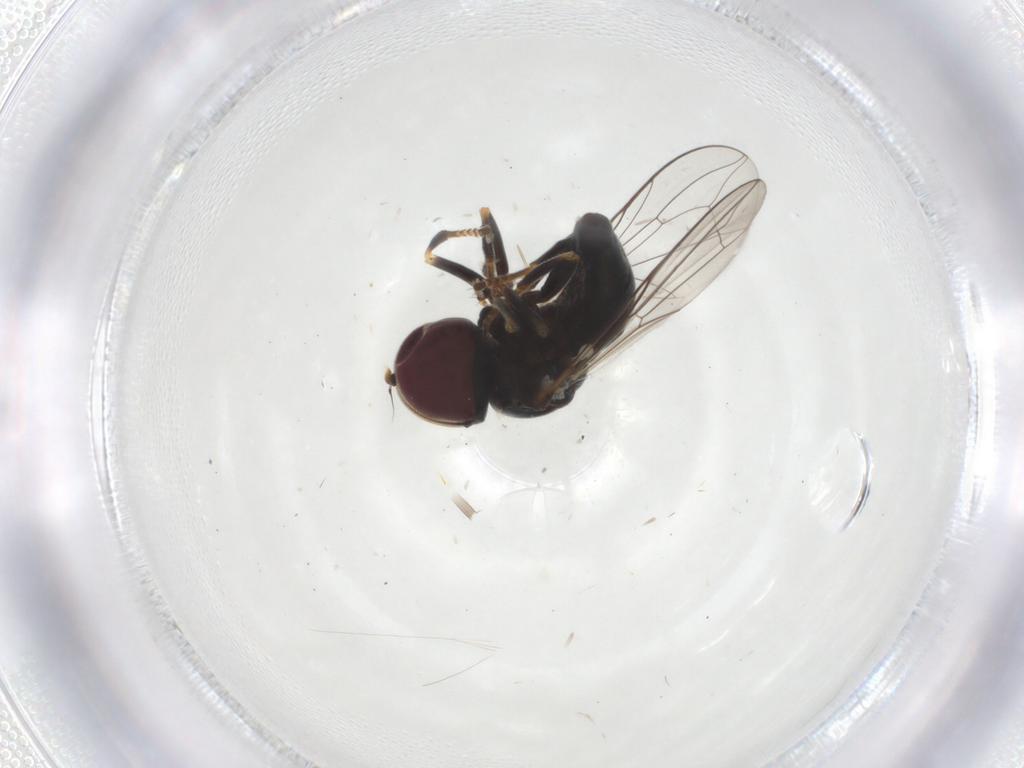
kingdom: Animalia
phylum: Arthropoda
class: Insecta
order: Diptera
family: Pipunculidae
